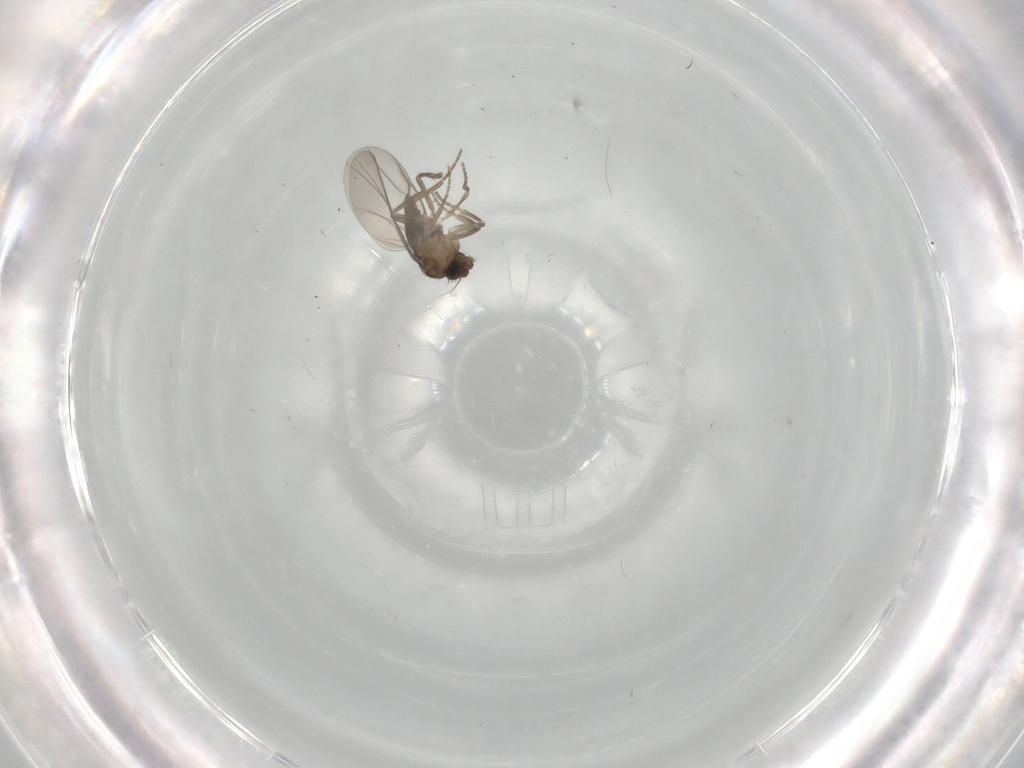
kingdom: Animalia
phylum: Arthropoda
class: Insecta
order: Diptera
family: Phoridae
